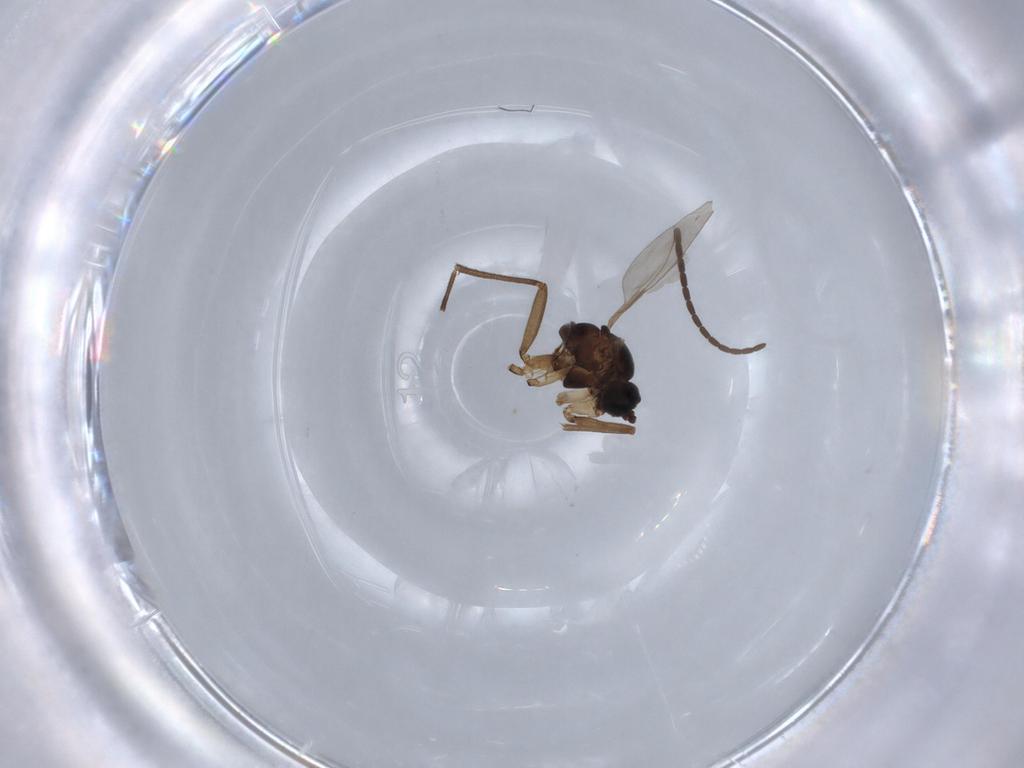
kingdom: Animalia
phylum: Arthropoda
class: Insecta
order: Diptera
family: Sciaridae
